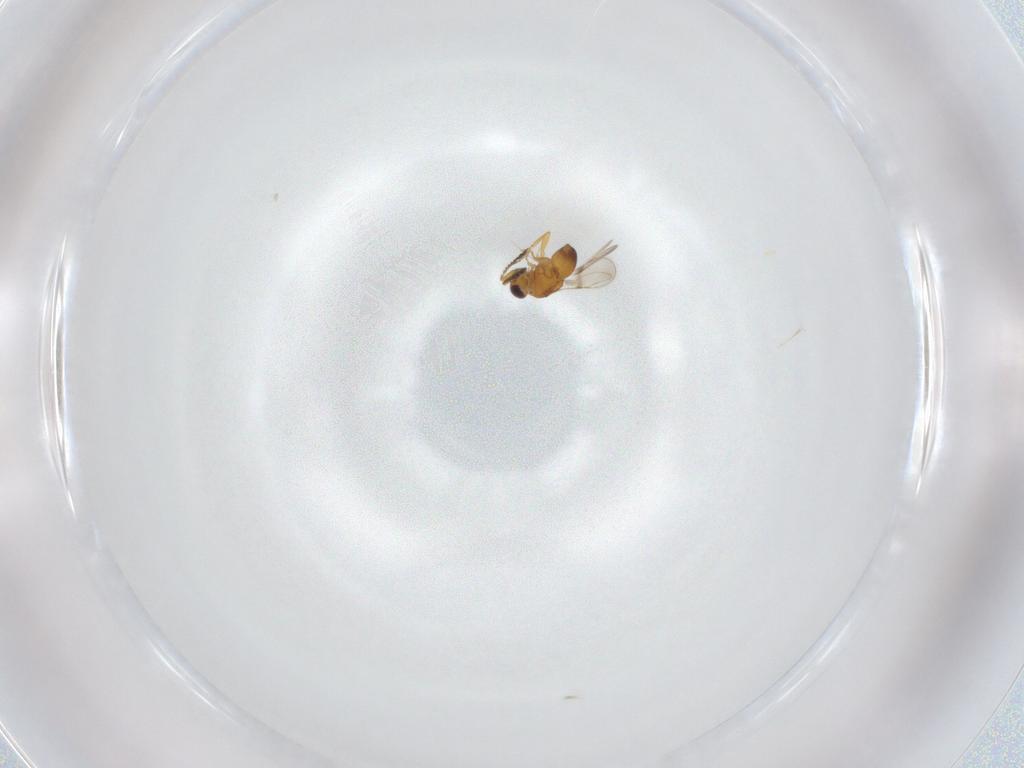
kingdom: Animalia
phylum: Arthropoda
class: Insecta
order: Hymenoptera
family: Ceraphronidae
